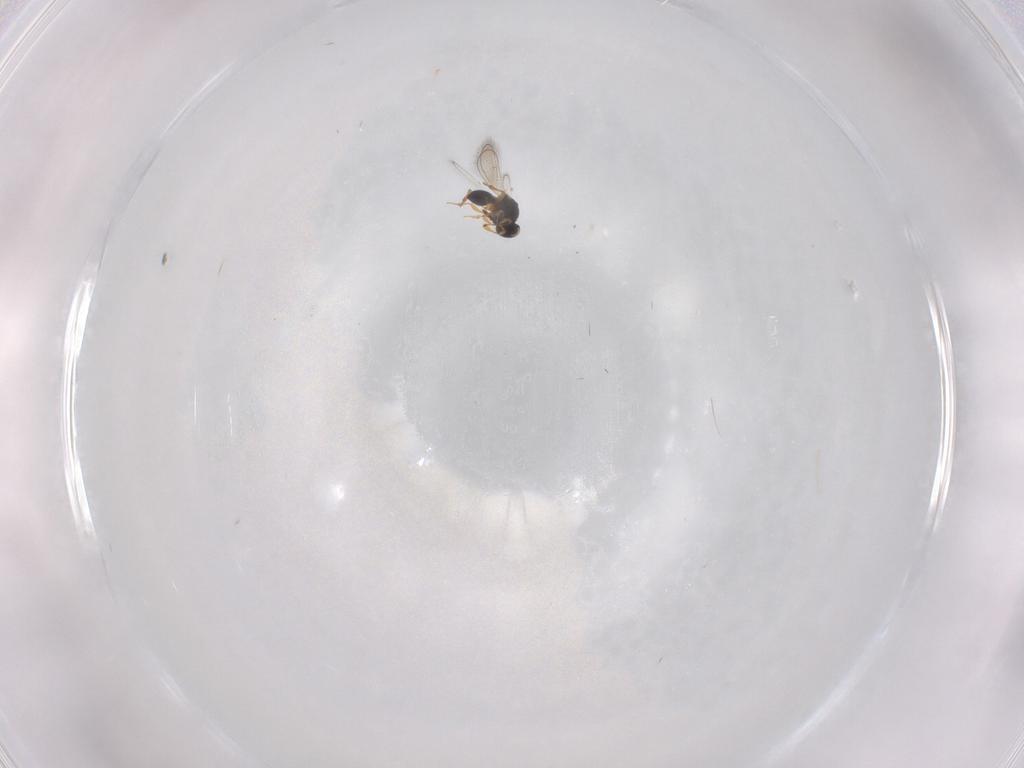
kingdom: Animalia
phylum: Arthropoda
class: Insecta
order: Hymenoptera
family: Platygastridae
